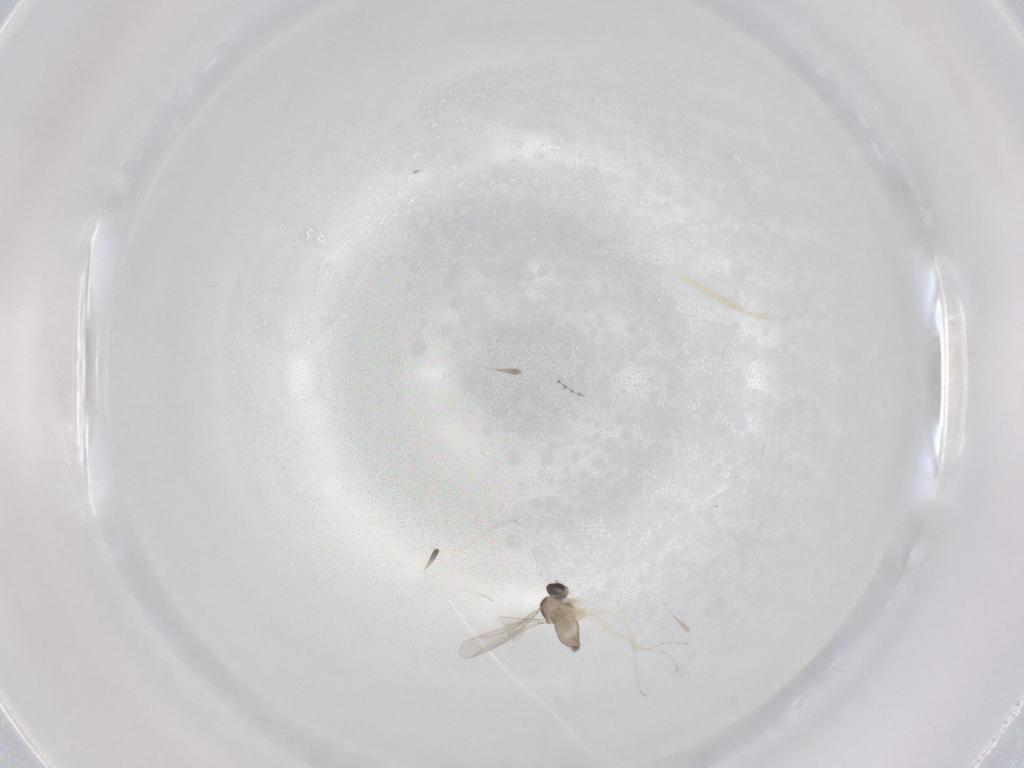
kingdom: Animalia
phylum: Arthropoda
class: Insecta
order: Diptera
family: Cecidomyiidae
